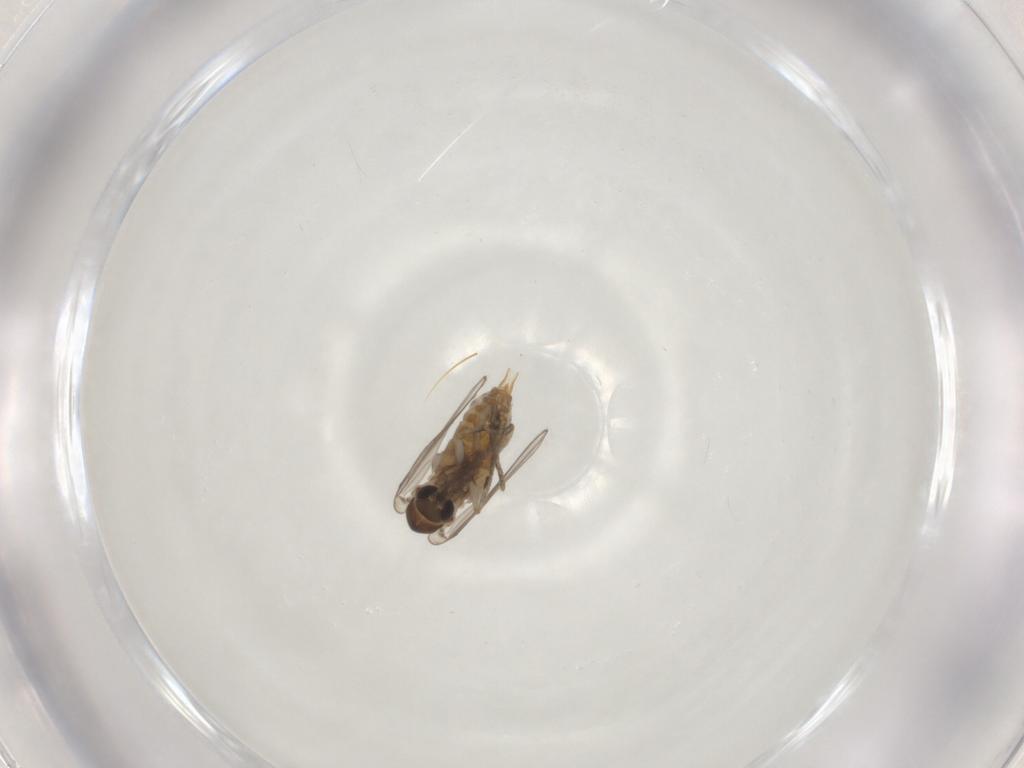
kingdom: Animalia
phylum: Arthropoda
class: Insecta
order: Diptera
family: Psychodidae
